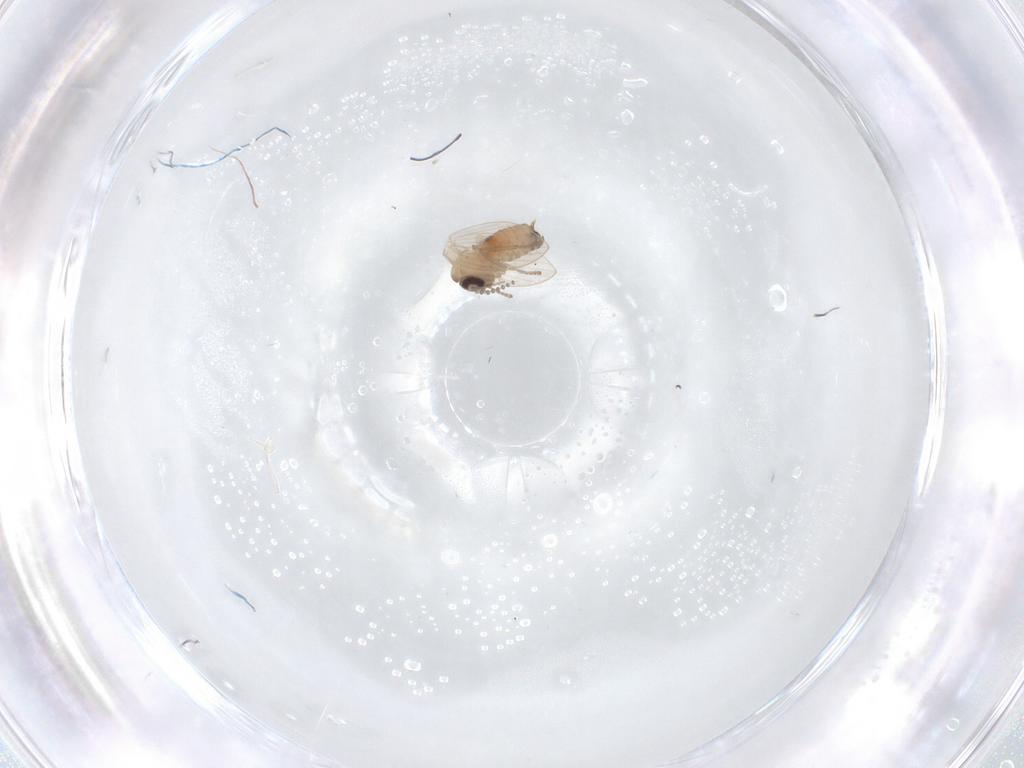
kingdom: Animalia
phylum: Arthropoda
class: Insecta
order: Diptera
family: Psychodidae
